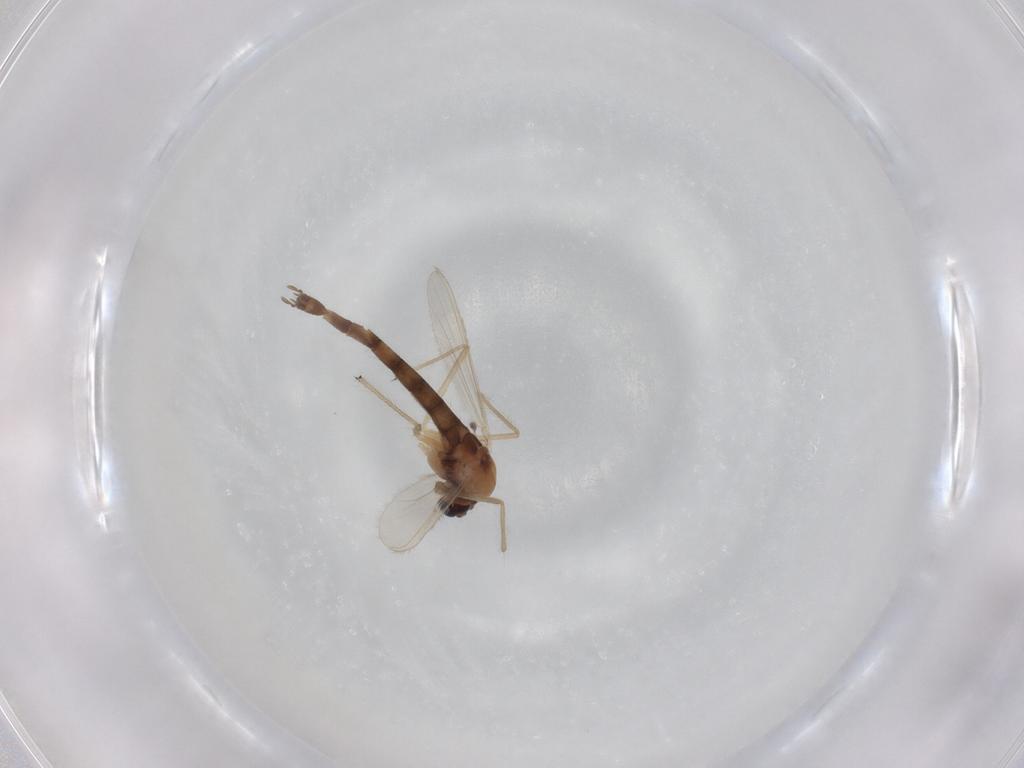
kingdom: Animalia
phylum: Arthropoda
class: Insecta
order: Diptera
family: Chironomidae
